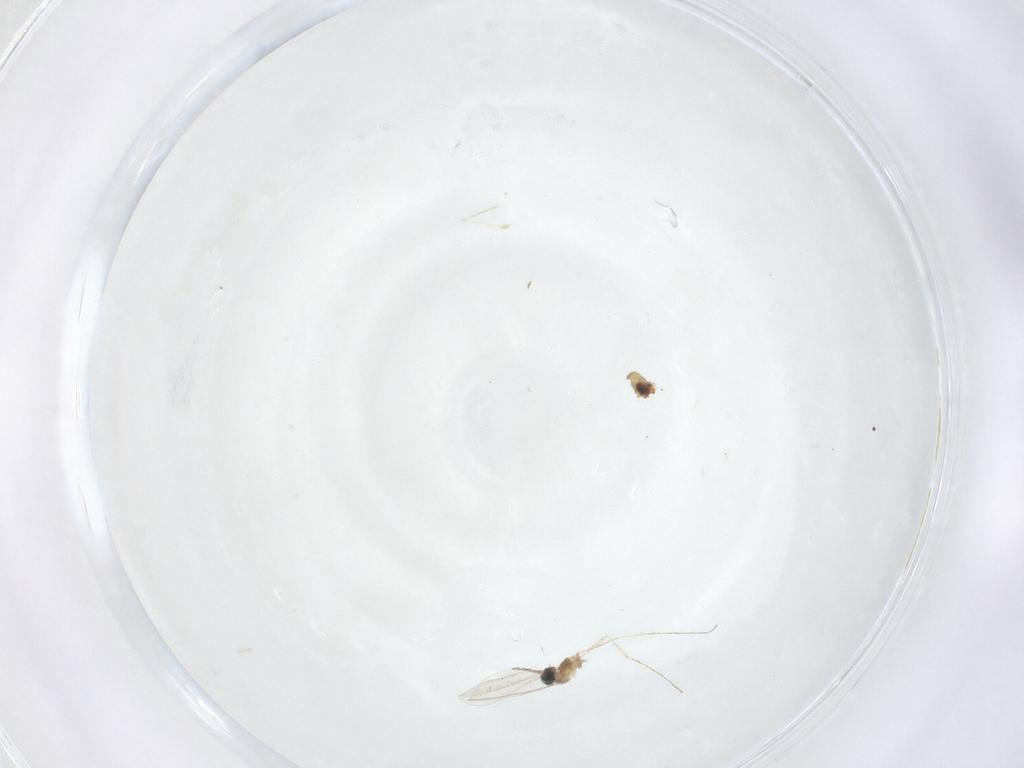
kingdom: Animalia
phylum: Arthropoda
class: Insecta
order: Diptera
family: Cecidomyiidae
